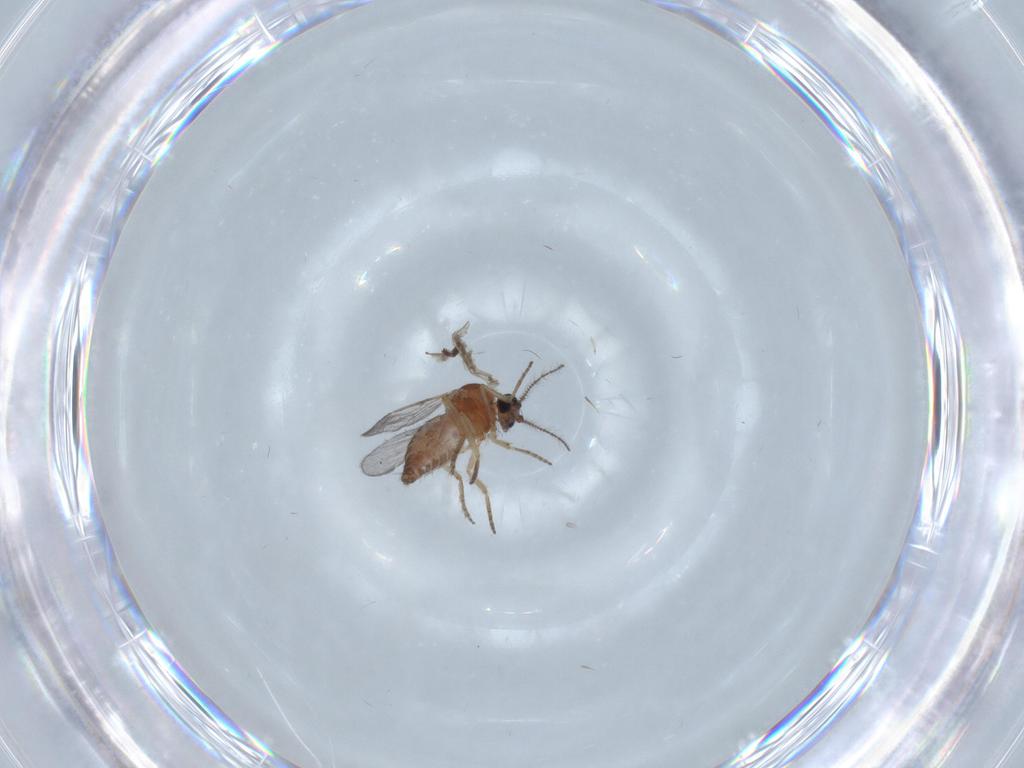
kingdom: Animalia
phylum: Arthropoda
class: Insecta
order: Diptera
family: Ceratopogonidae
